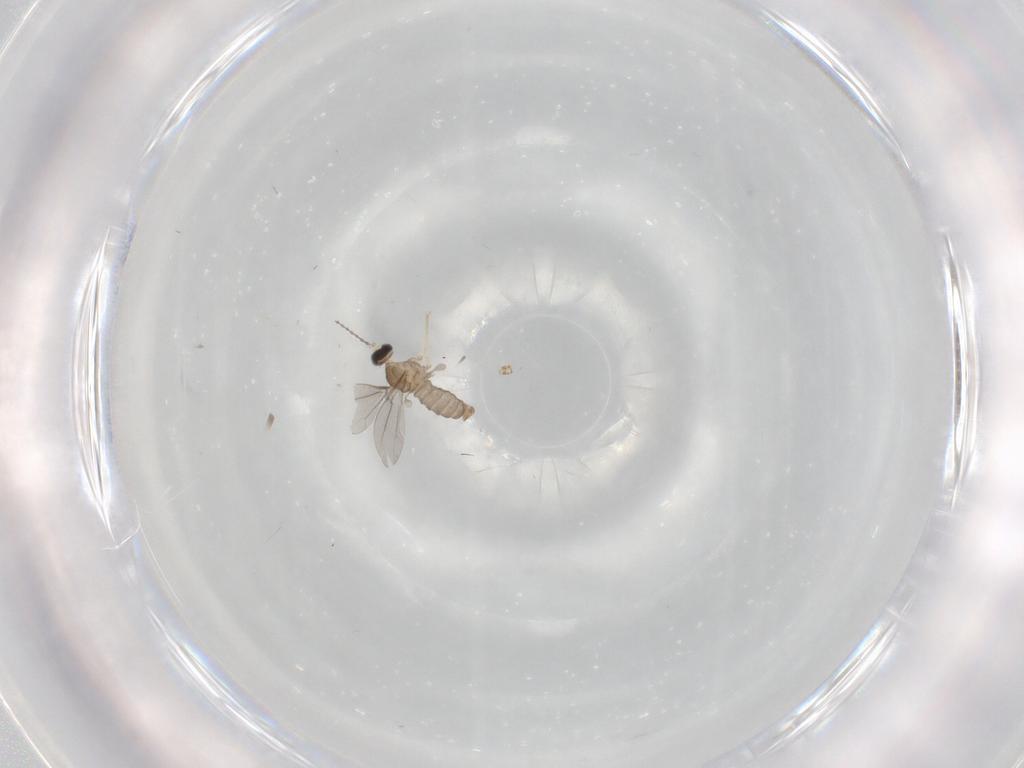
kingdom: Animalia
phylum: Arthropoda
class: Insecta
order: Diptera
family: Cecidomyiidae
